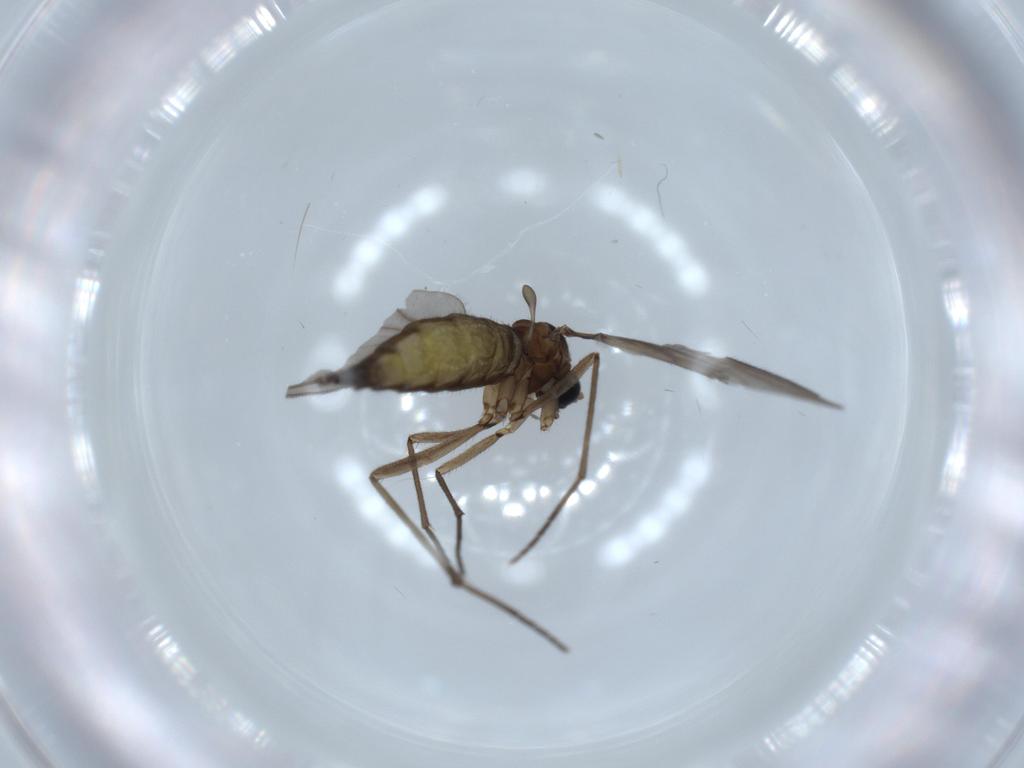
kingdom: Animalia
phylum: Arthropoda
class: Insecta
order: Diptera
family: Sciaridae
